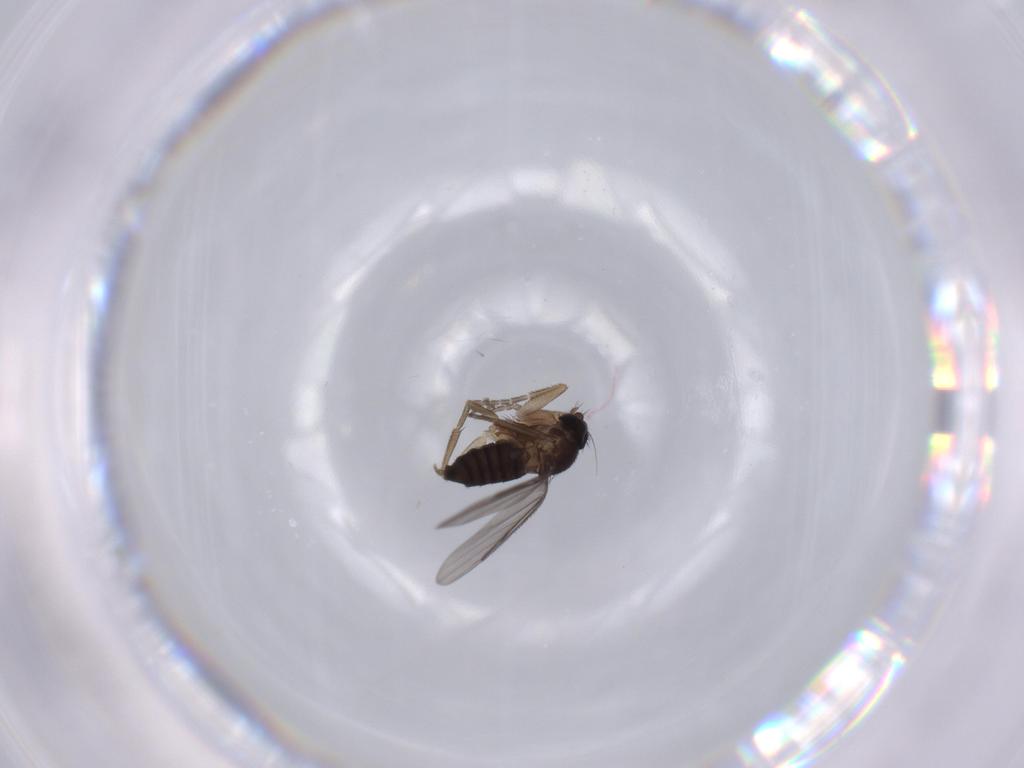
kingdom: Animalia
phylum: Arthropoda
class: Insecta
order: Diptera
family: Phoridae
